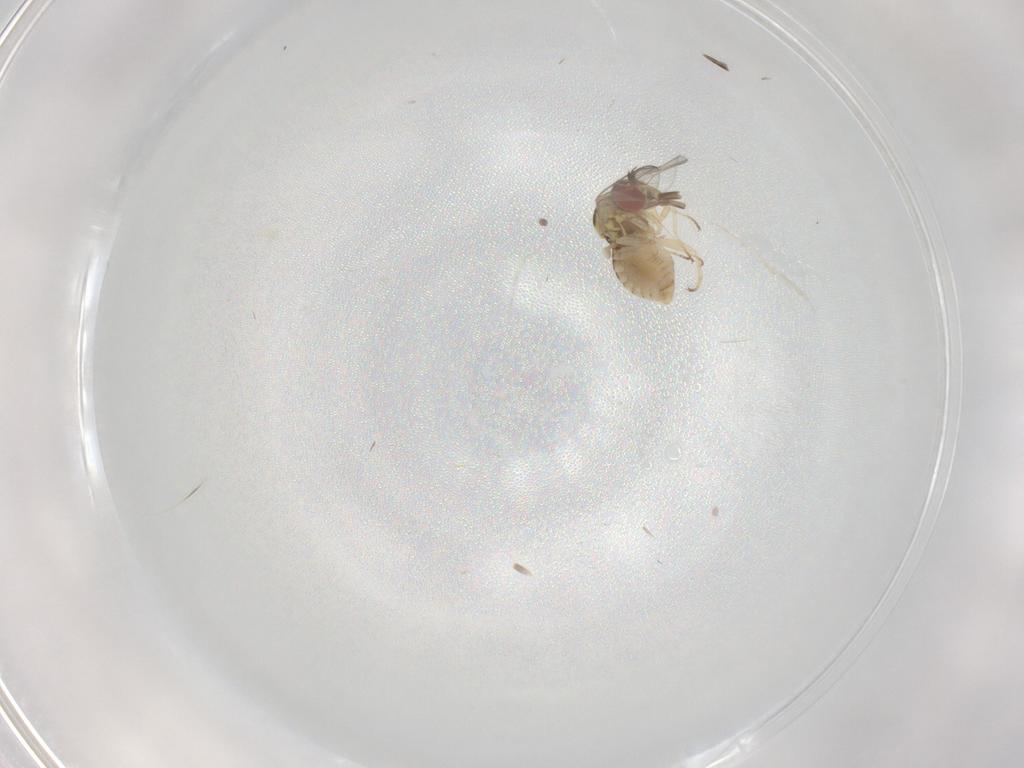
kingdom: Animalia
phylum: Arthropoda
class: Insecta
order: Diptera
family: Bombyliidae
